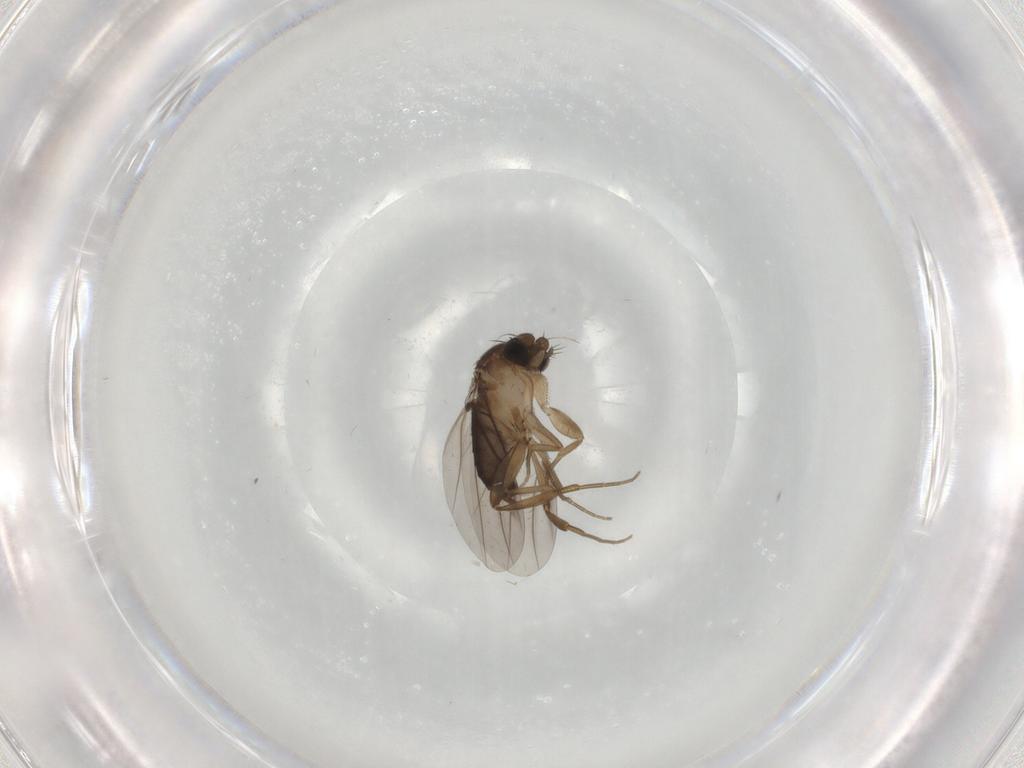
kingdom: Animalia
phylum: Arthropoda
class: Insecta
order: Diptera
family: Phoridae
